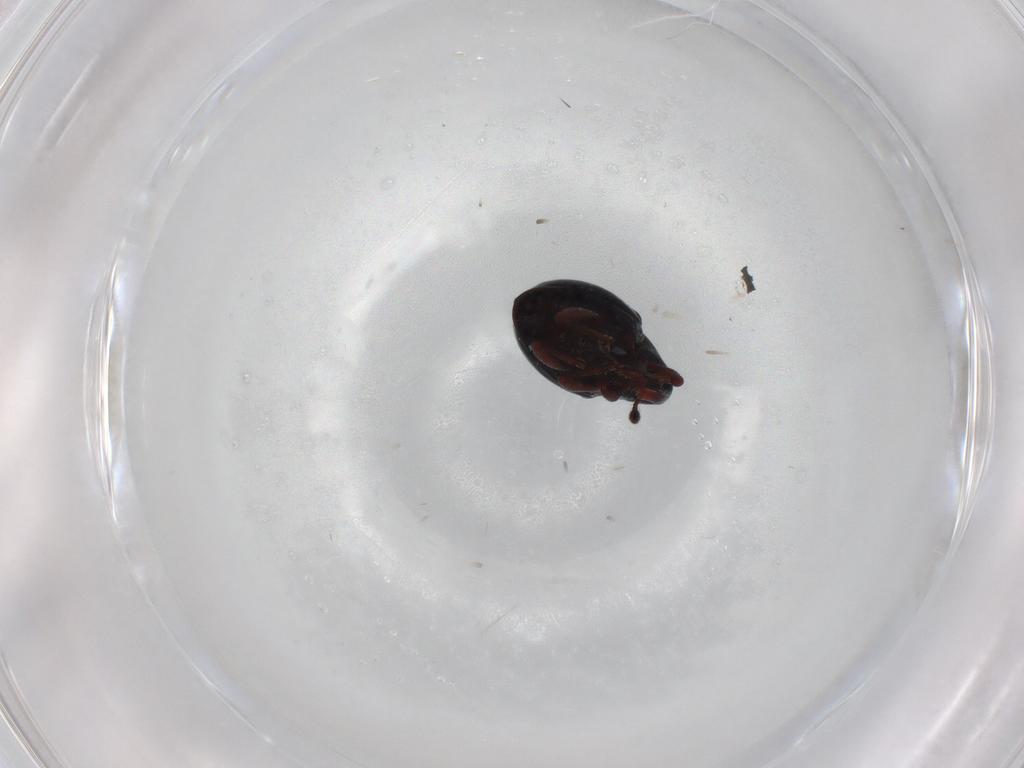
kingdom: Animalia
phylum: Arthropoda
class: Insecta
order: Coleoptera
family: Curculionidae
